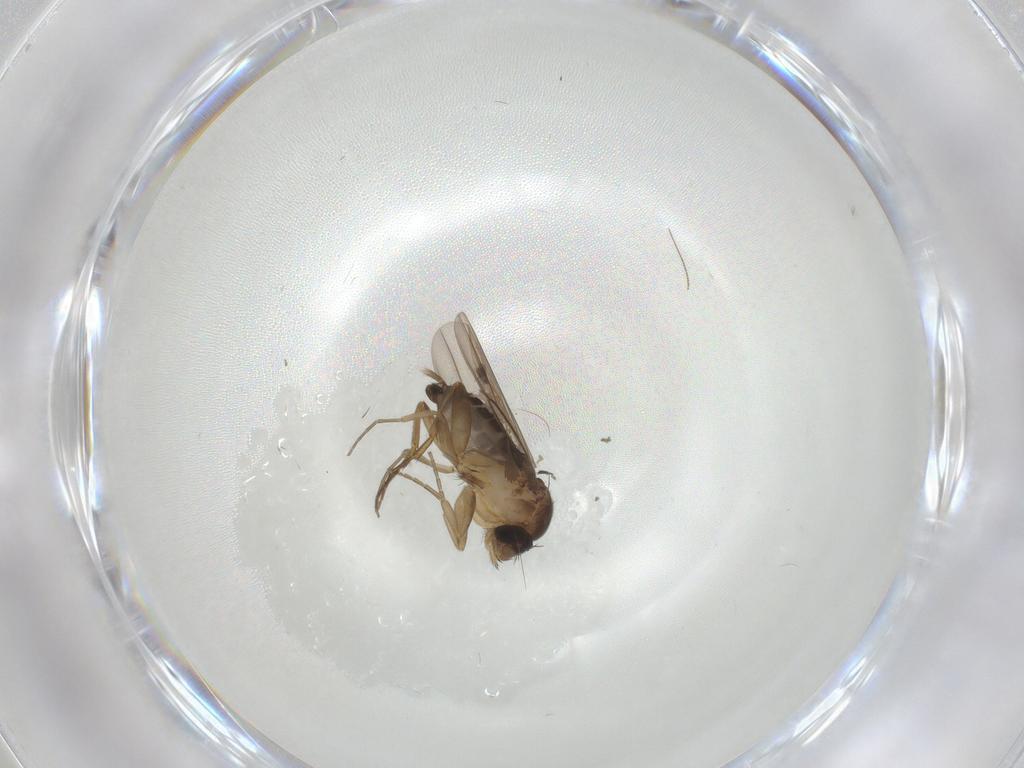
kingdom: Animalia
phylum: Arthropoda
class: Insecta
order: Diptera
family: Phoridae
